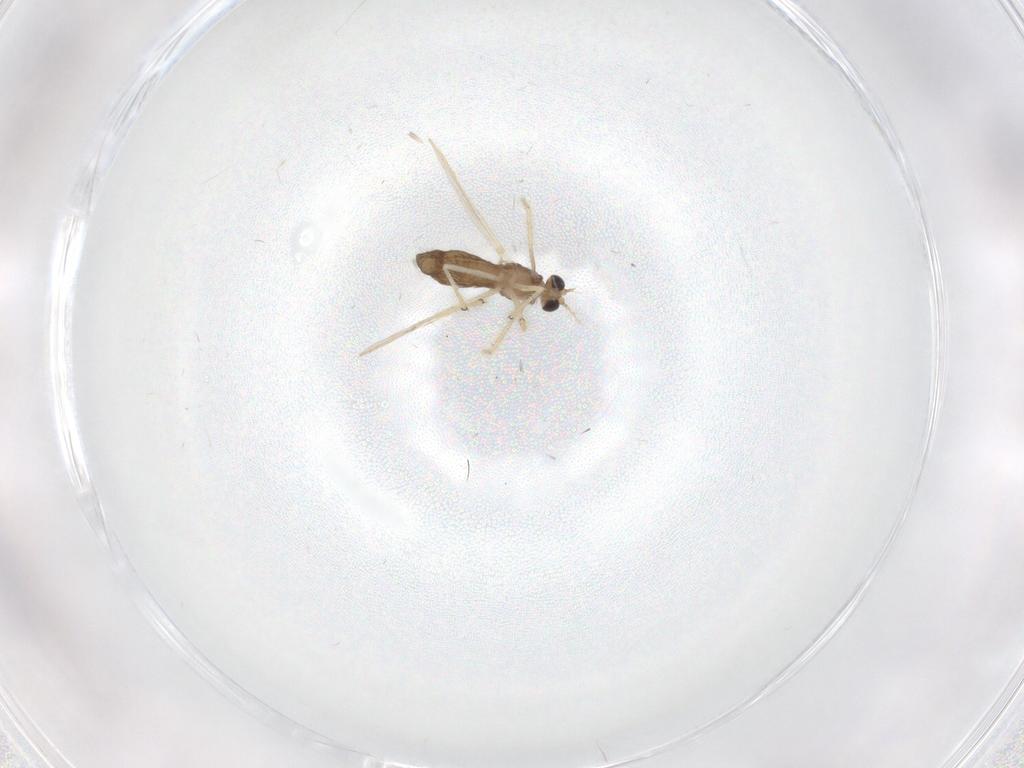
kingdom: Animalia
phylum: Arthropoda
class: Insecta
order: Diptera
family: Chironomidae
